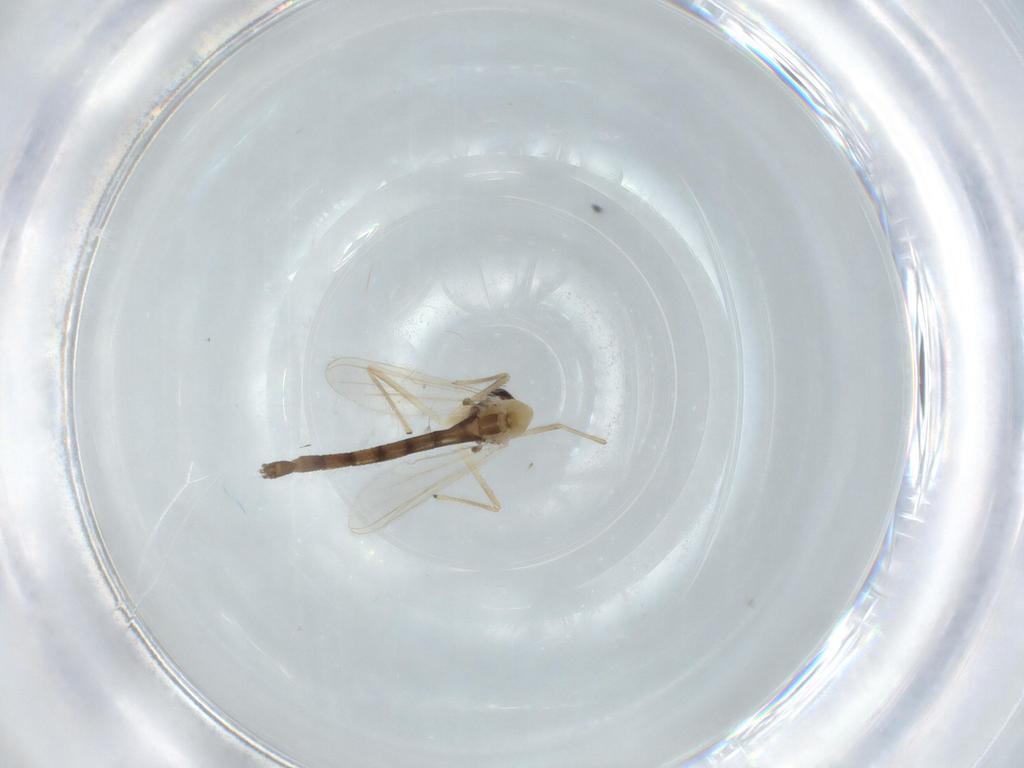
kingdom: Animalia
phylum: Arthropoda
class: Insecta
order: Diptera
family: Chironomidae
